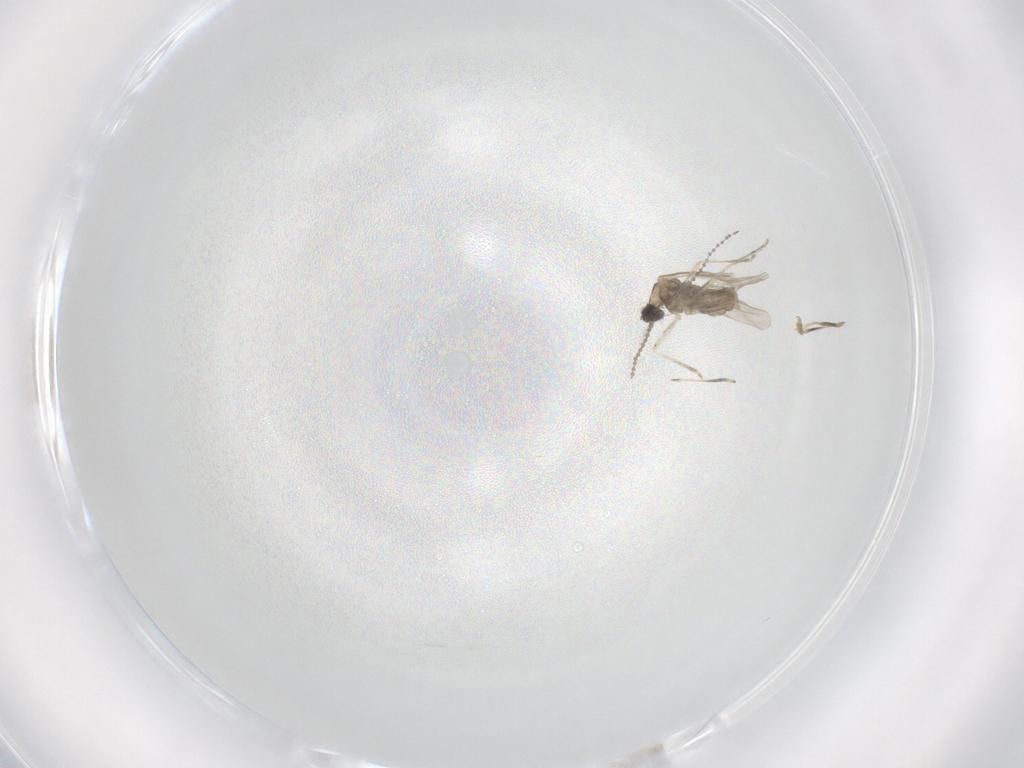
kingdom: Animalia
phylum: Arthropoda
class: Insecta
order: Diptera
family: Cecidomyiidae
